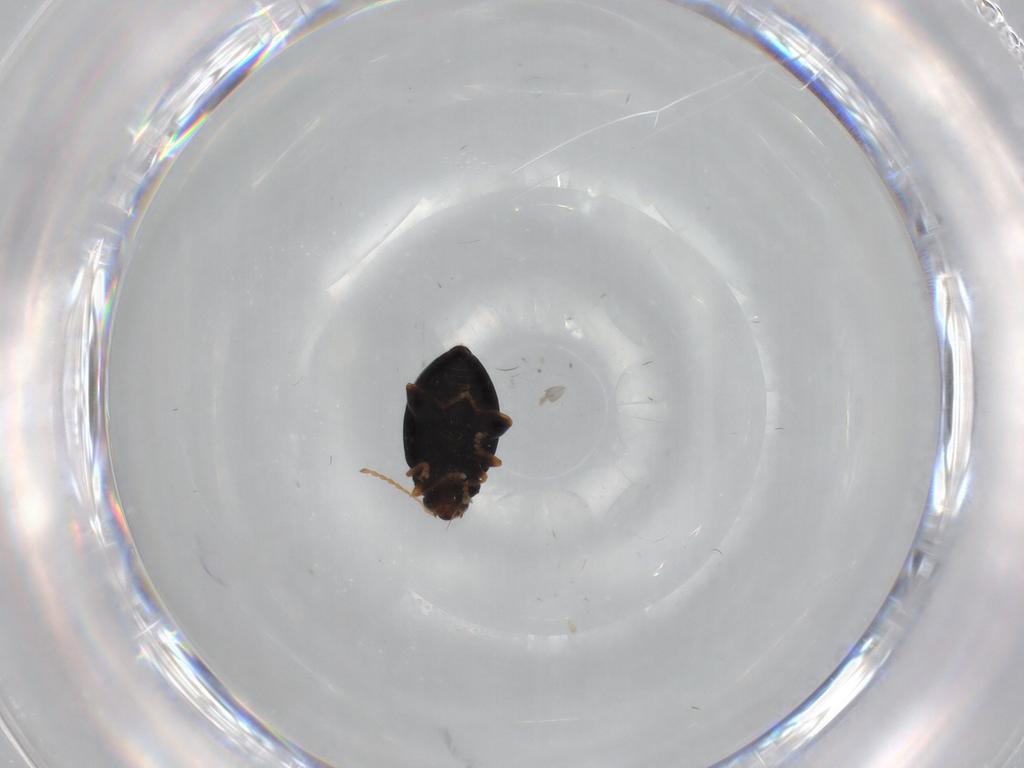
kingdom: Animalia
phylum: Arthropoda
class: Insecta
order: Coleoptera
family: Chrysomelidae
